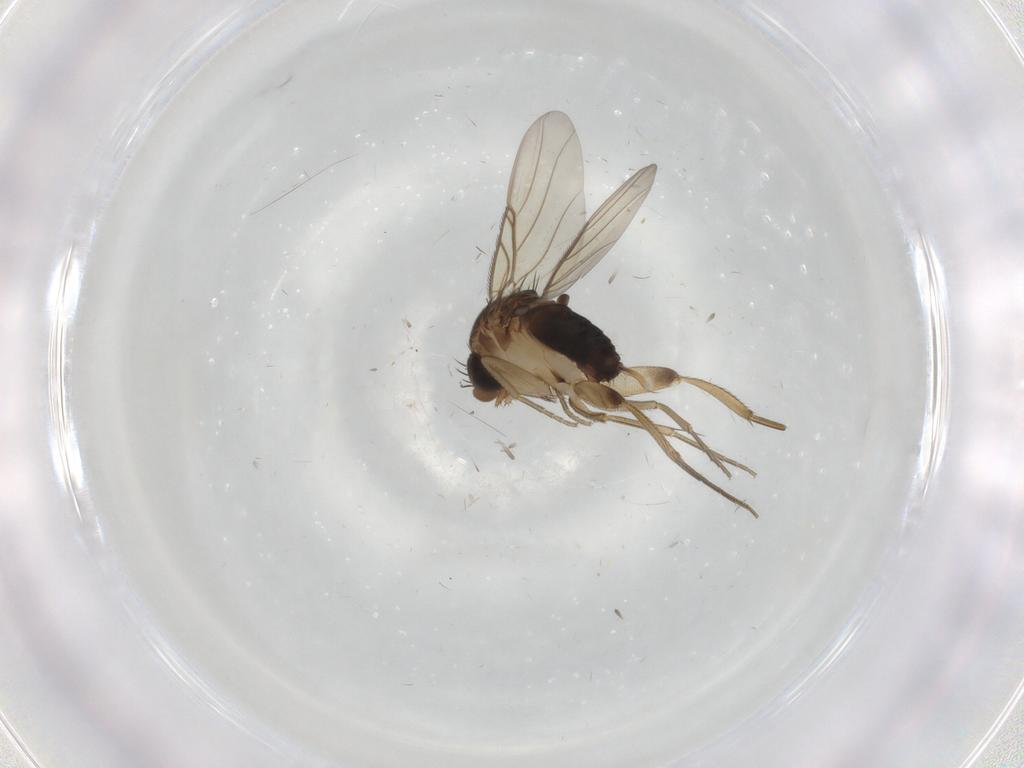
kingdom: Animalia
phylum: Arthropoda
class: Insecta
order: Diptera
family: Phoridae
